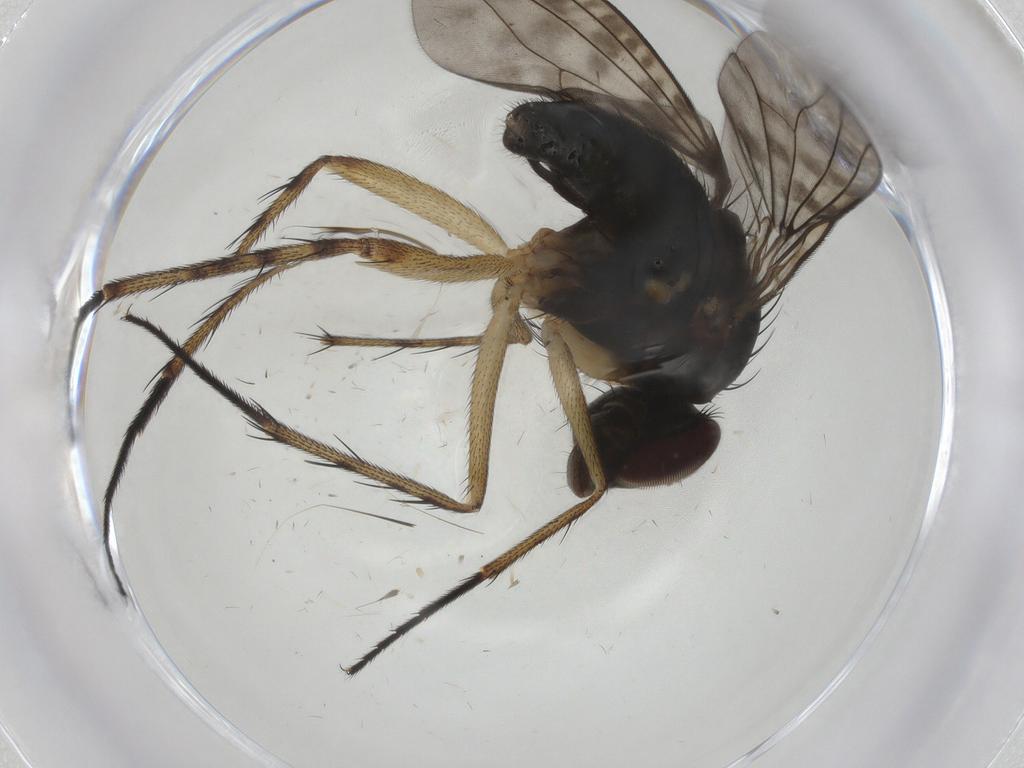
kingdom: Animalia
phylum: Arthropoda
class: Insecta
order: Diptera
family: Dolichopodidae
